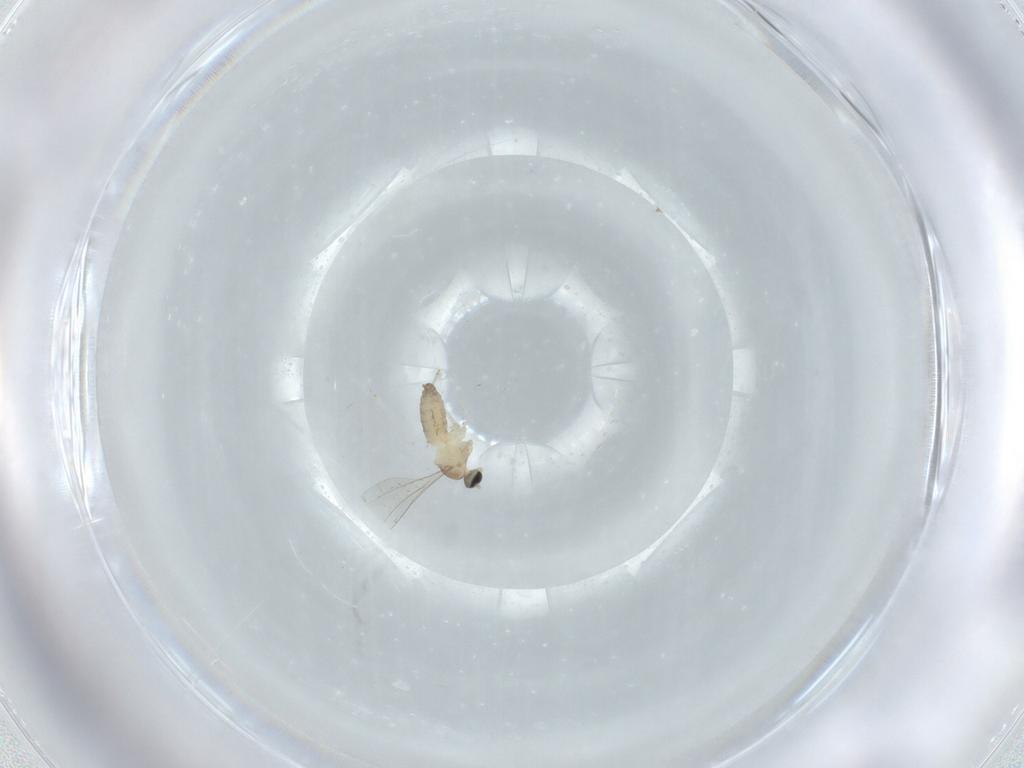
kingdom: Animalia
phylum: Arthropoda
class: Insecta
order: Diptera
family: Cecidomyiidae
